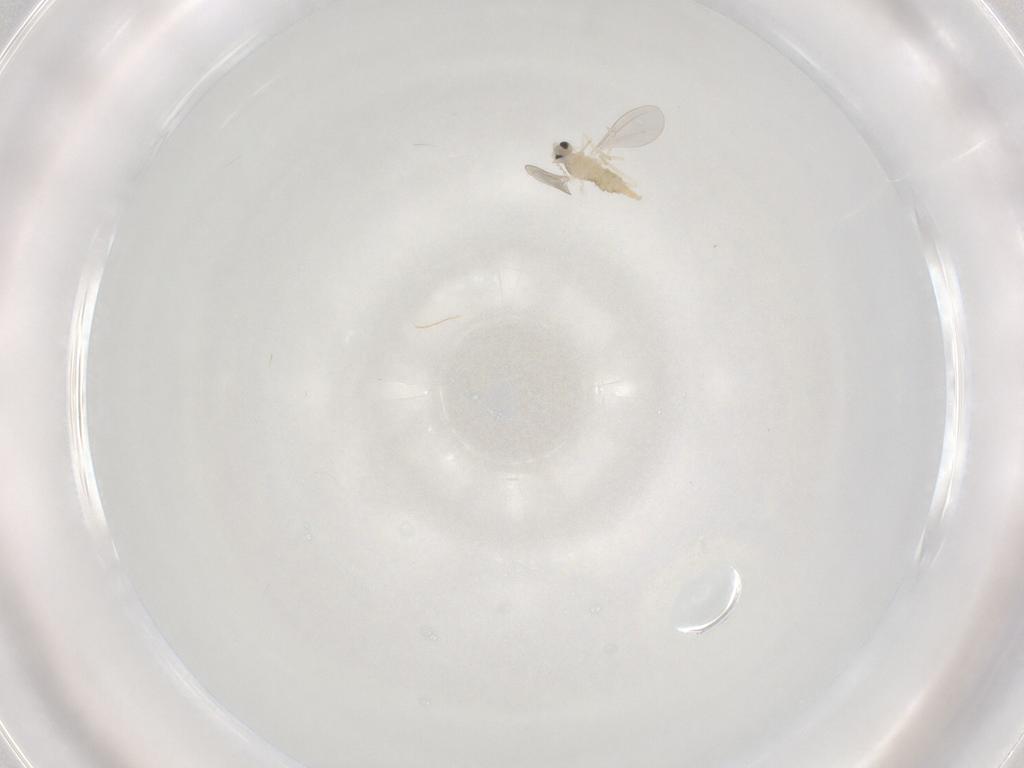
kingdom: Animalia
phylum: Arthropoda
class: Insecta
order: Diptera
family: Cecidomyiidae
